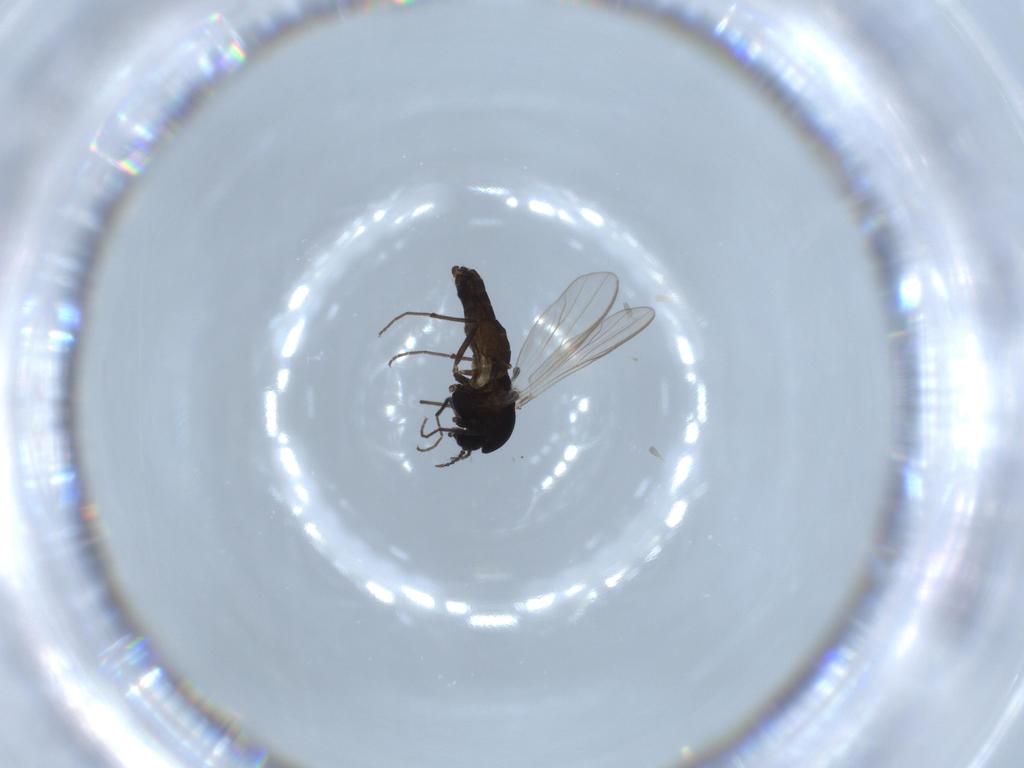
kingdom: Animalia
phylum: Arthropoda
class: Insecta
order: Diptera
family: Chironomidae
